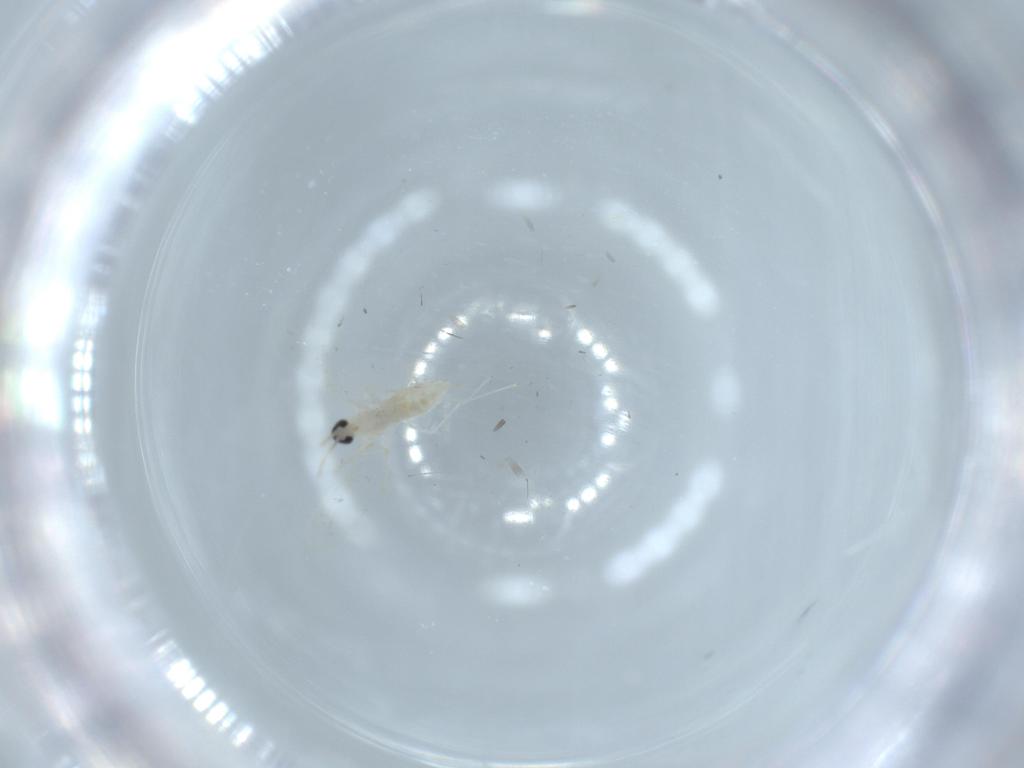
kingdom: Animalia
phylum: Arthropoda
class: Insecta
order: Diptera
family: Cecidomyiidae
